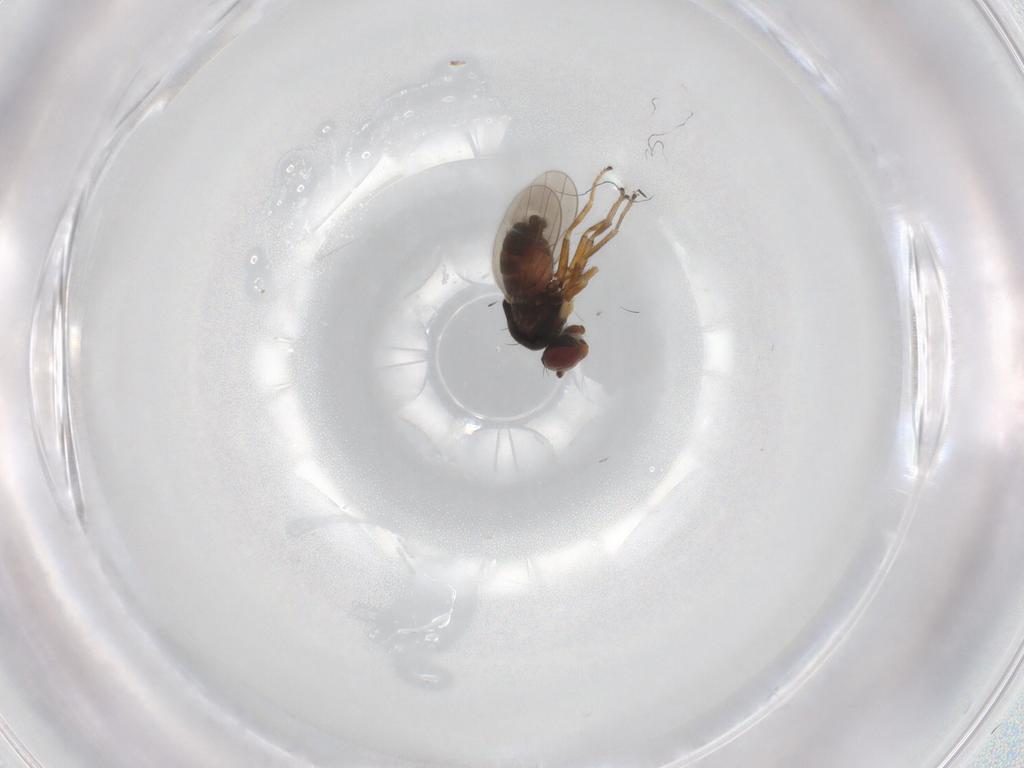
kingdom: Animalia
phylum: Arthropoda
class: Insecta
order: Diptera
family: Ephydridae
